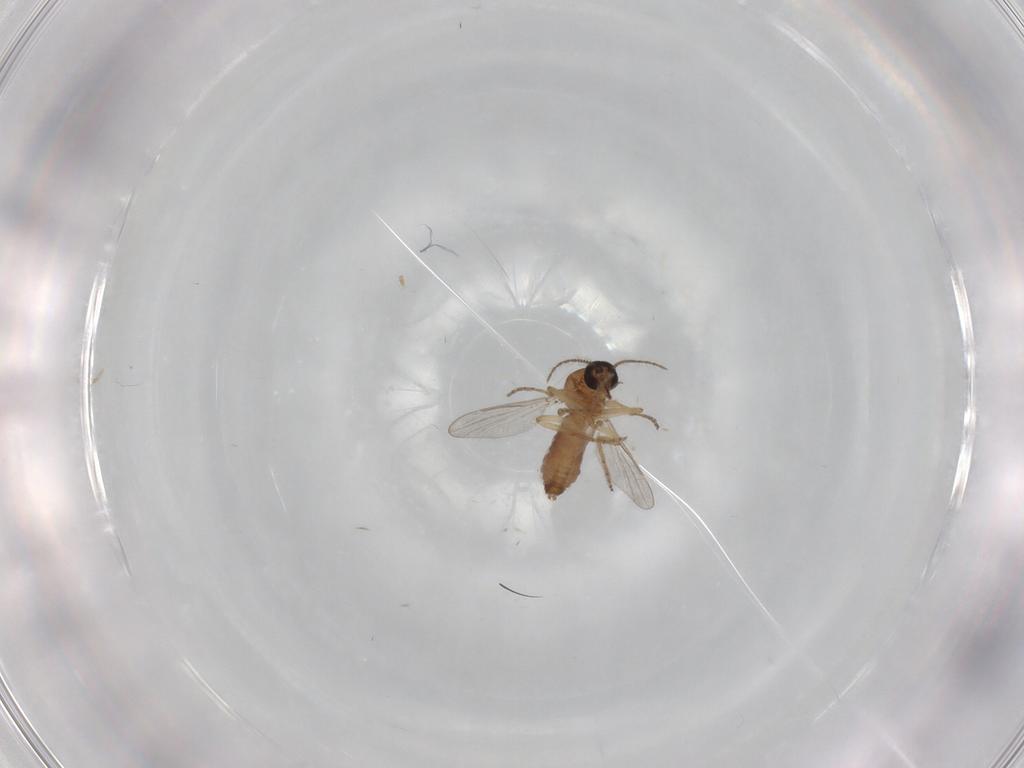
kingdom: Animalia
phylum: Arthropoda
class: Insecta
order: Diptera
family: Ceratopogonidae
